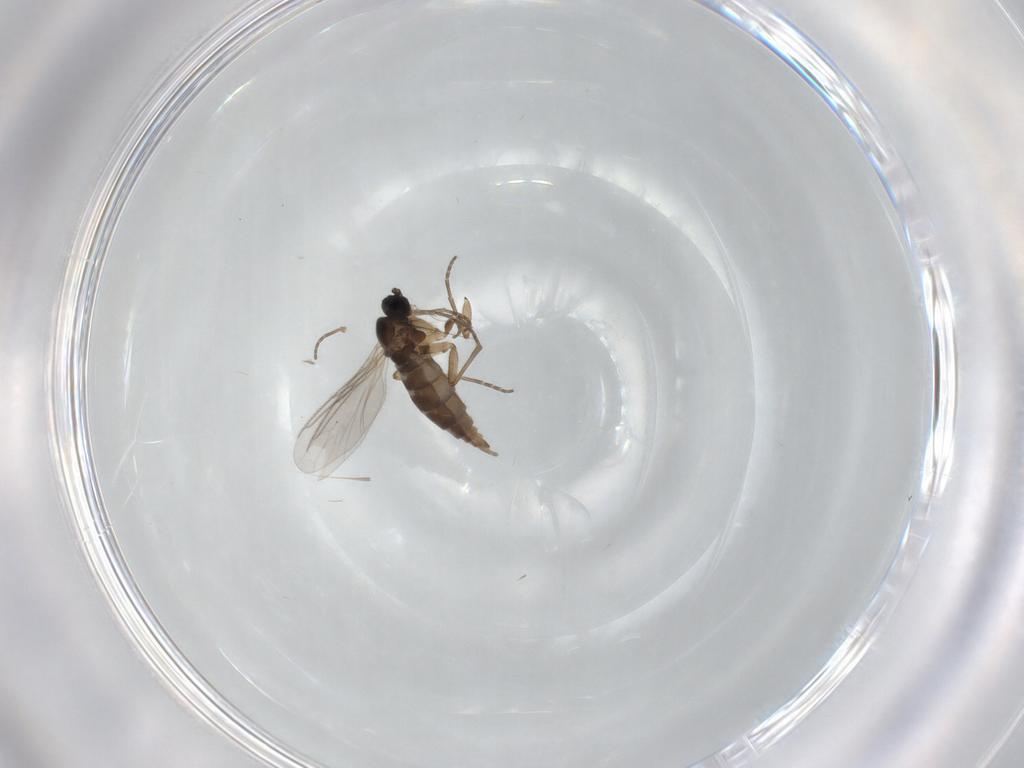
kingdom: Animalia
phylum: Arthropoda
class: Insecta
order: Diptera
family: Sciaridae
